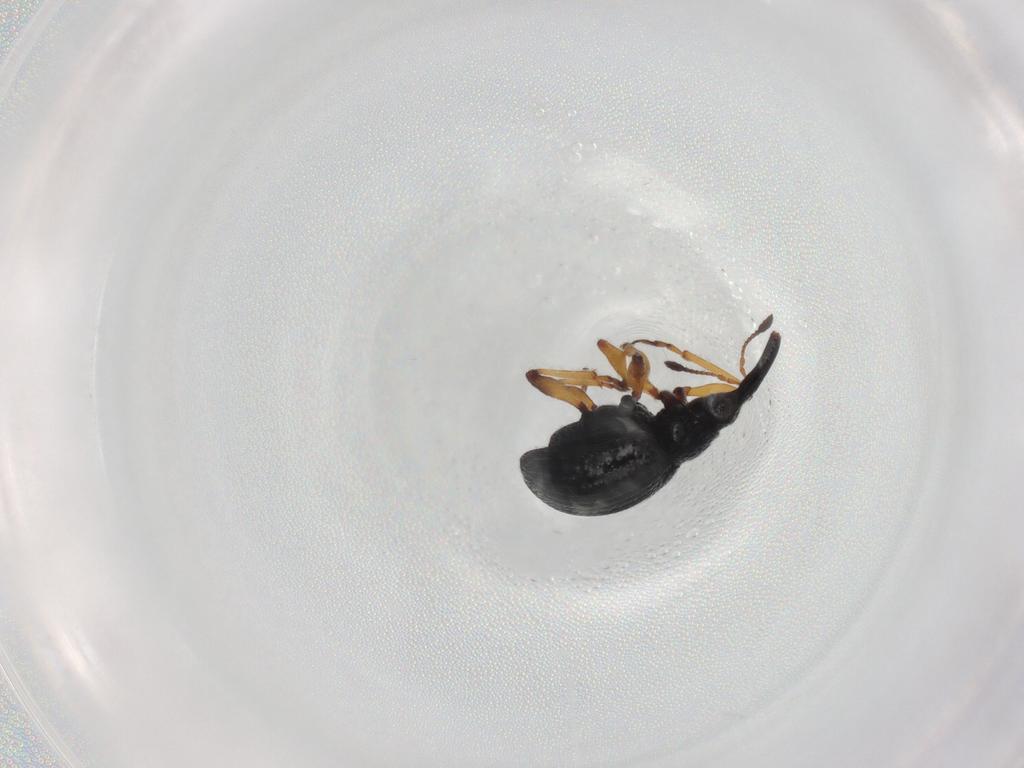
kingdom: Animalia
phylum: Arthropoda
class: Insecta
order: Coleoptera
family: Brentidae
